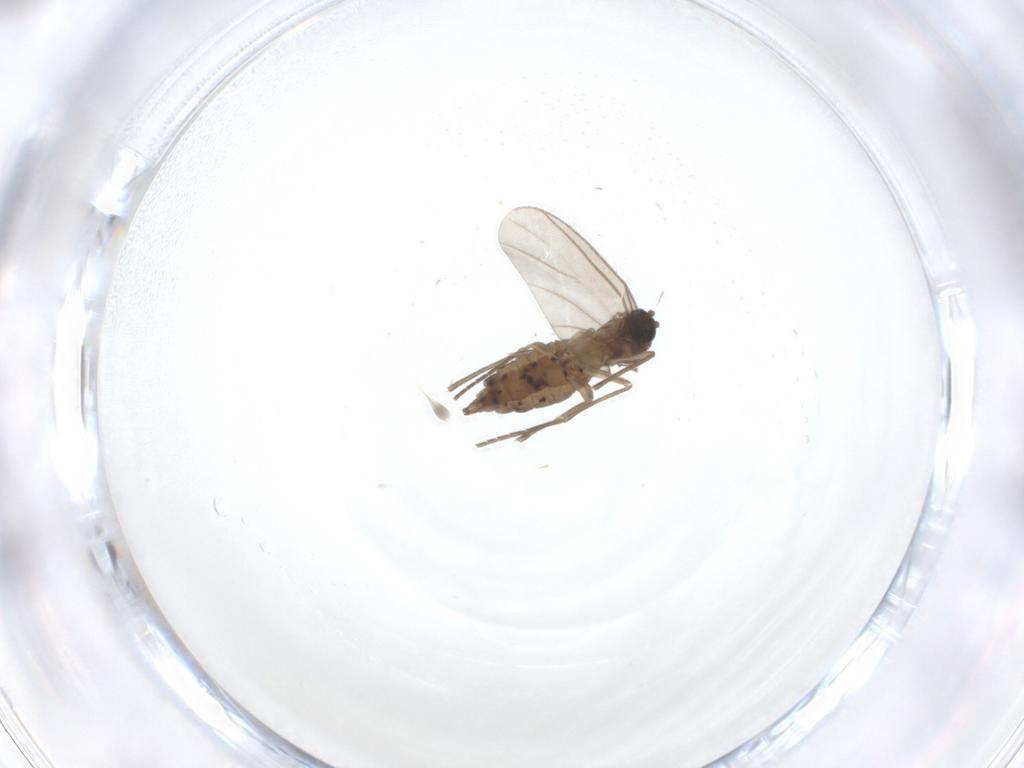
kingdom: Animalia
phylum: Arthropoda
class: Insecta
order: Diptera
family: Sciaridae
